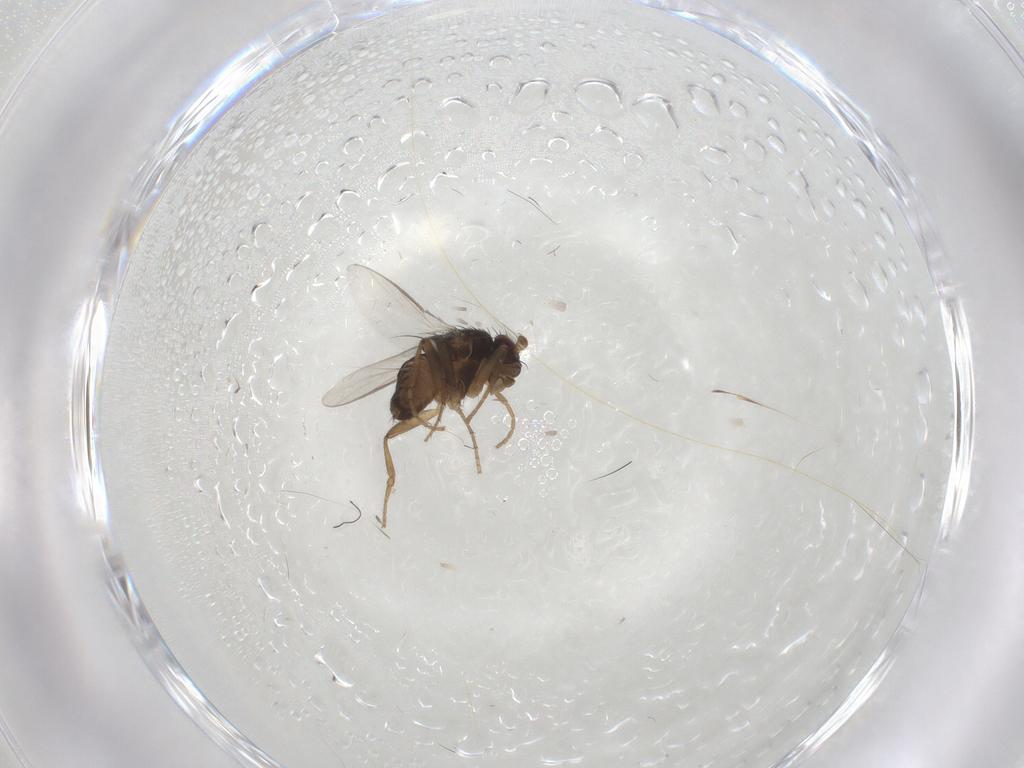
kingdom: Animalia
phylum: Arthropoda
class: Insecta
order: Diptera
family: Sphaeroceridae
